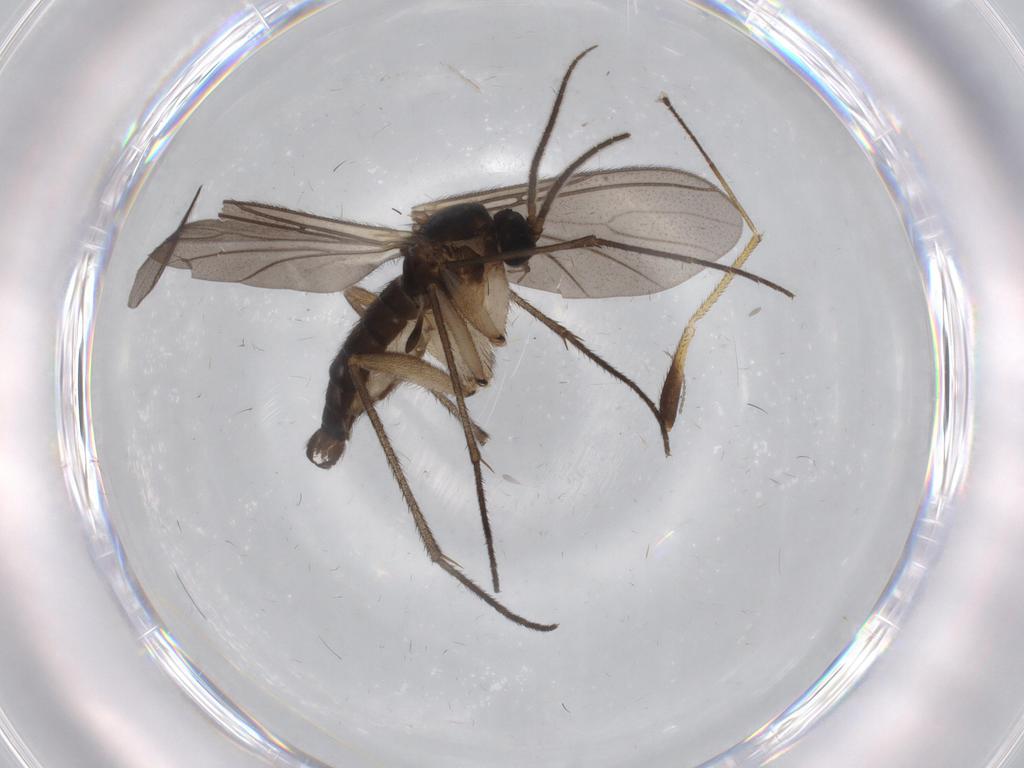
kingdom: Animalia
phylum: Arthropoda
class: Insecta
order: Diptera
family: Sciaridae
